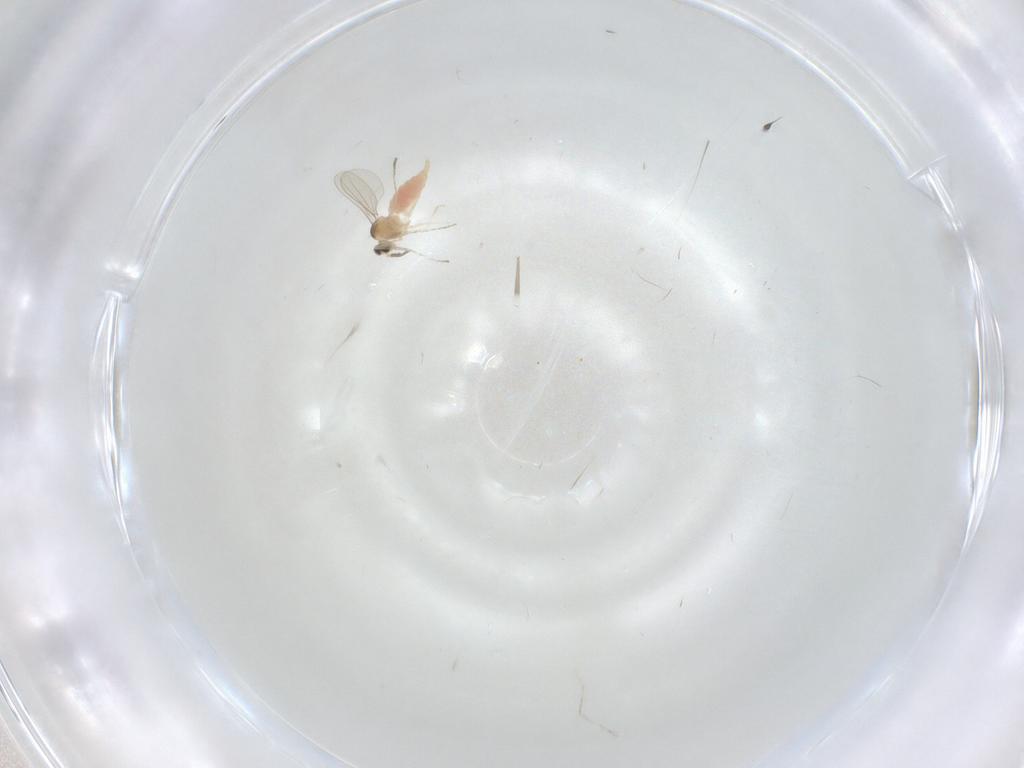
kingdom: Animalia
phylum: Arthropoda
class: Insecta
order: Diptera
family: Cecidomyiidae
